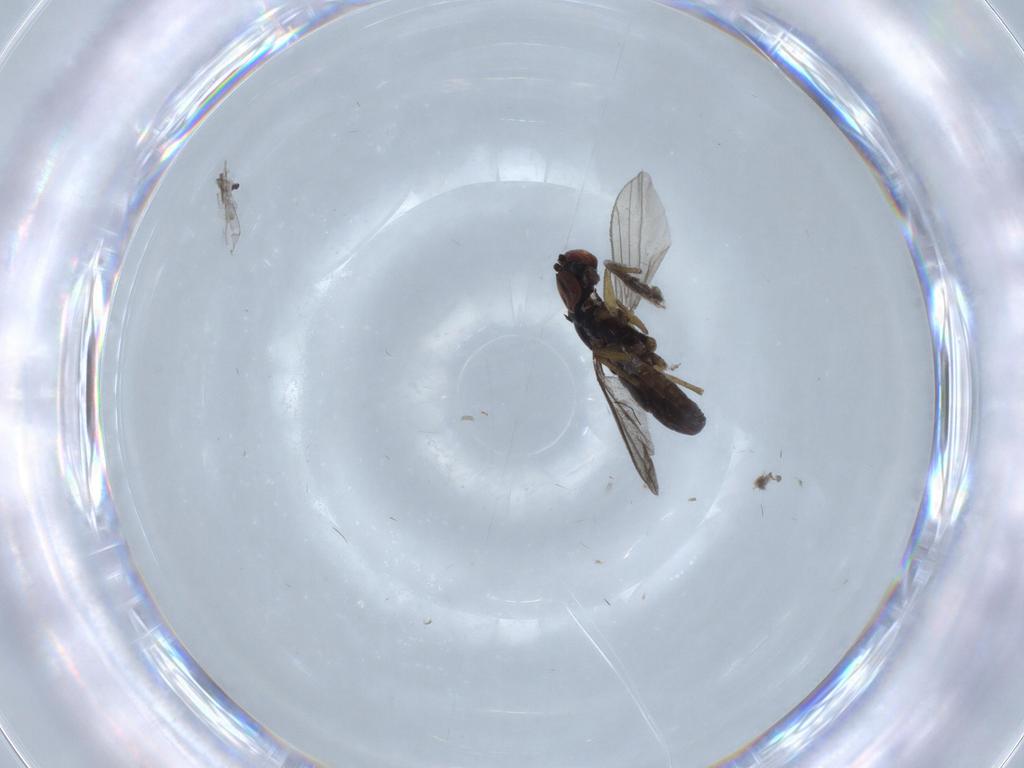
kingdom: Animalia
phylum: Arthropoda
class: Insecta
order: Diptera
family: Dolichopodidae
